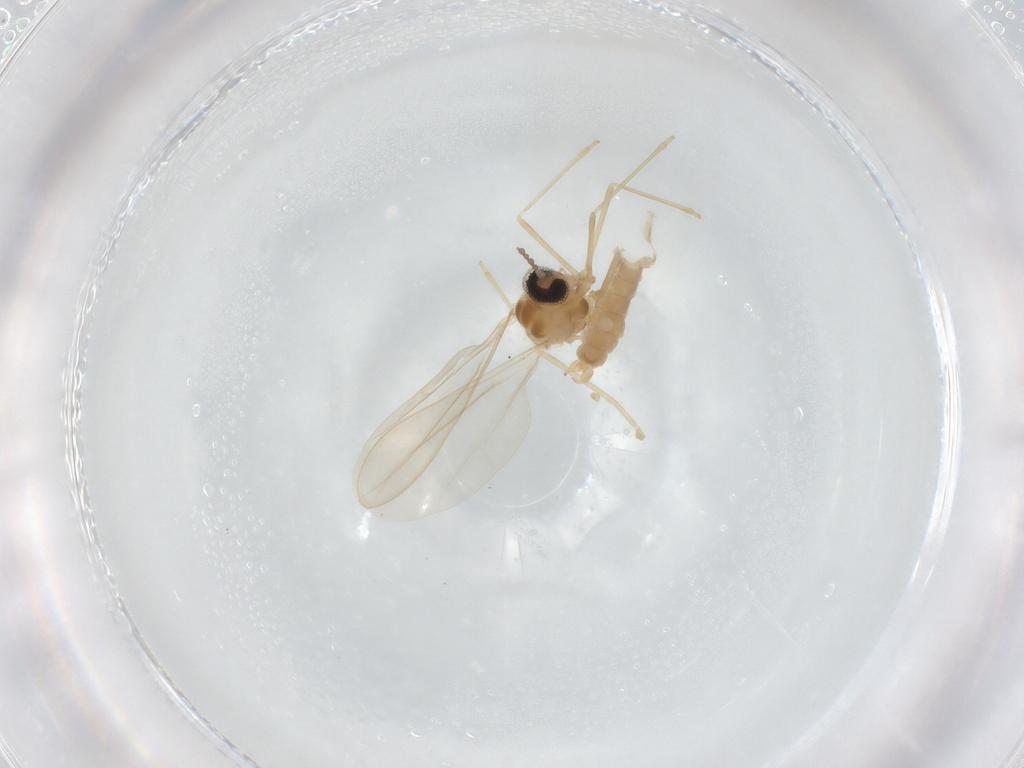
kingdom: Animalia
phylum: Arthropoda
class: Insecta
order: Diptera
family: Cecidomyiidae
